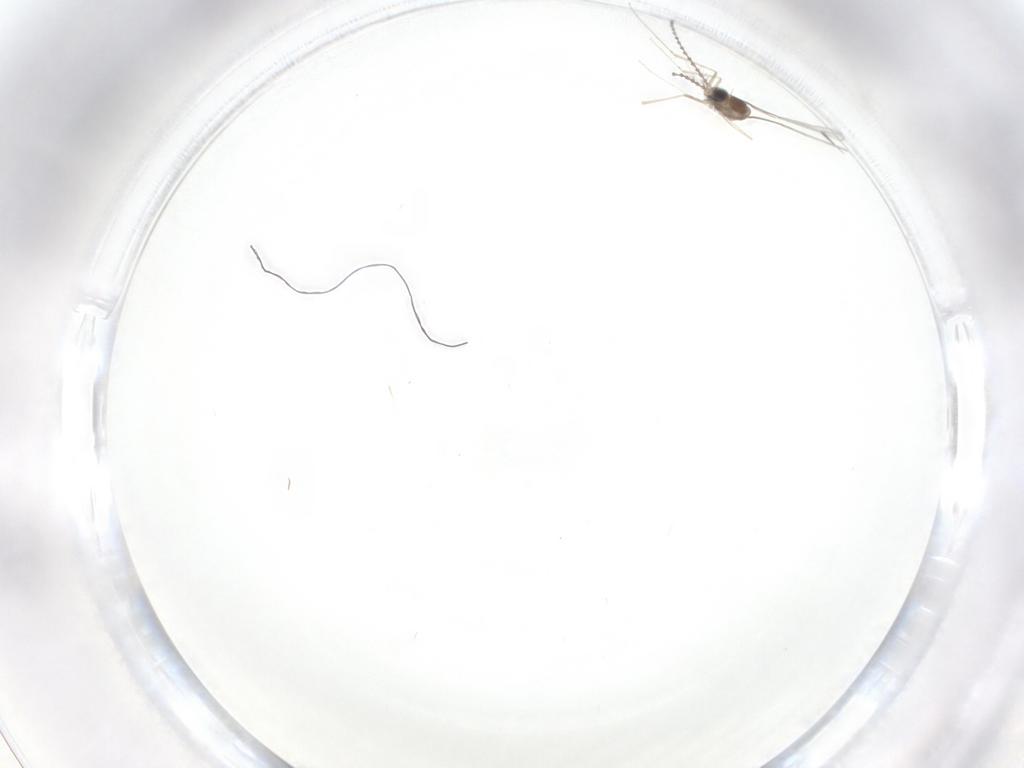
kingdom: Animalia
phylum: Arthropoda
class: Insecta
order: Diptera
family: Cecidomyiidae
